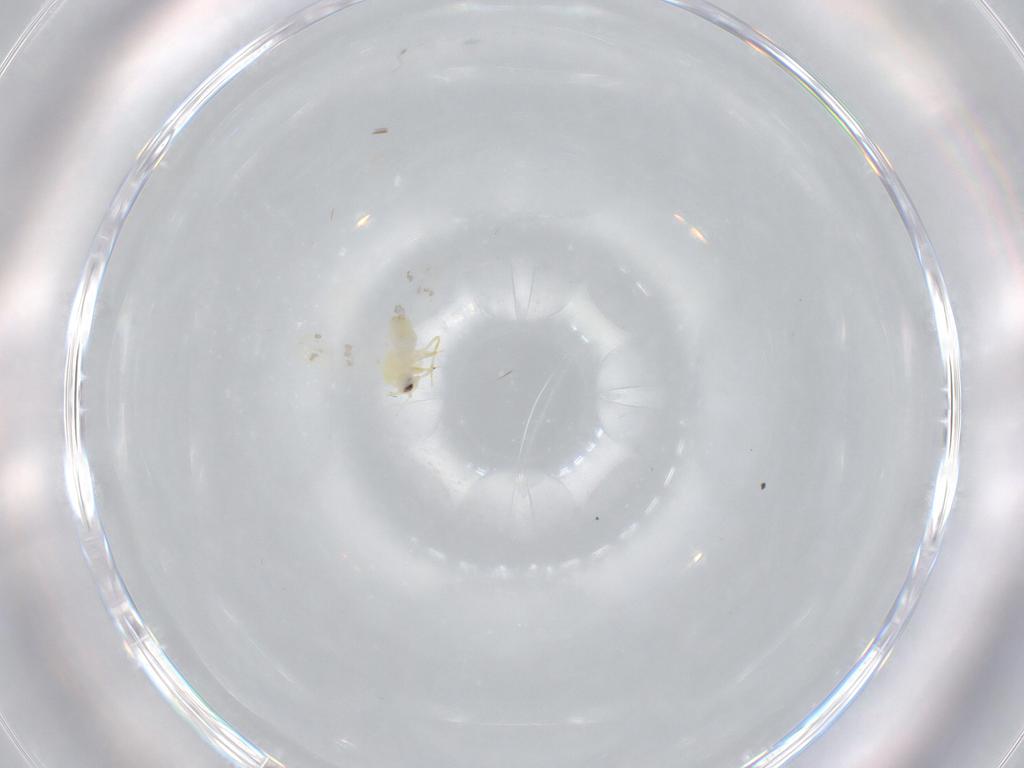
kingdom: Animalia
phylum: Arthropoda
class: Insecta
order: Hemiptera
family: Aleyrodidae
